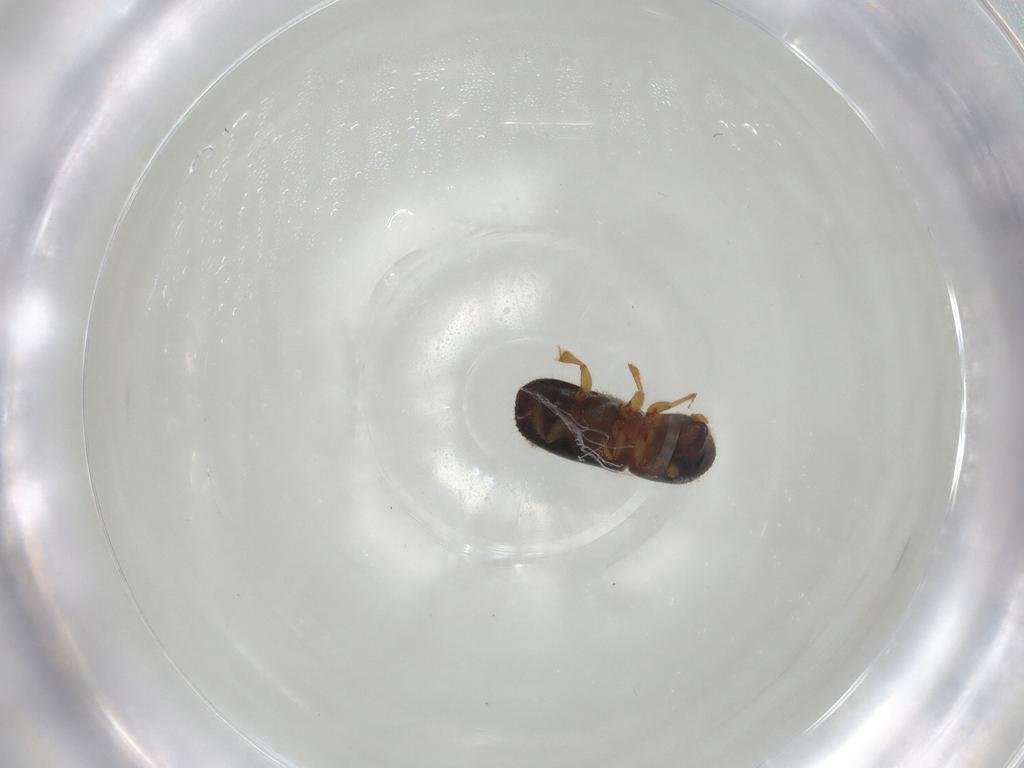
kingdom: Animalia
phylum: Arthropoda
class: Insecta
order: Coleoptera
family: Curculionidae
